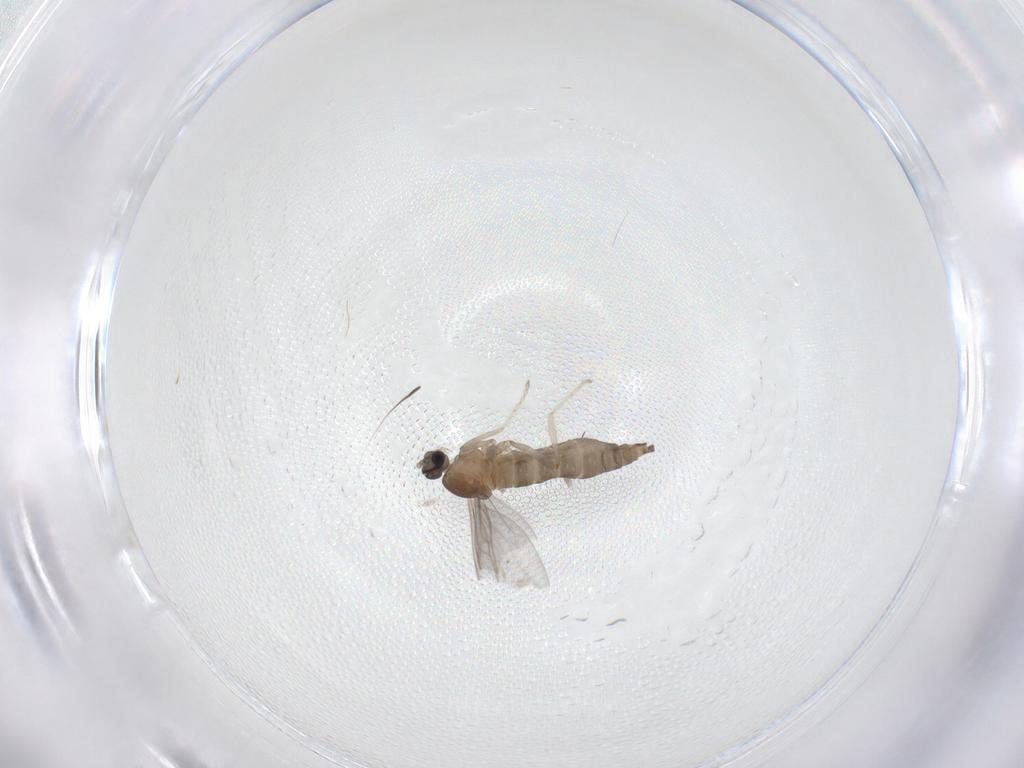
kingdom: Animalia
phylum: Arthropoda
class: Insecta
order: Diptera
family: Cecidomyiidae
